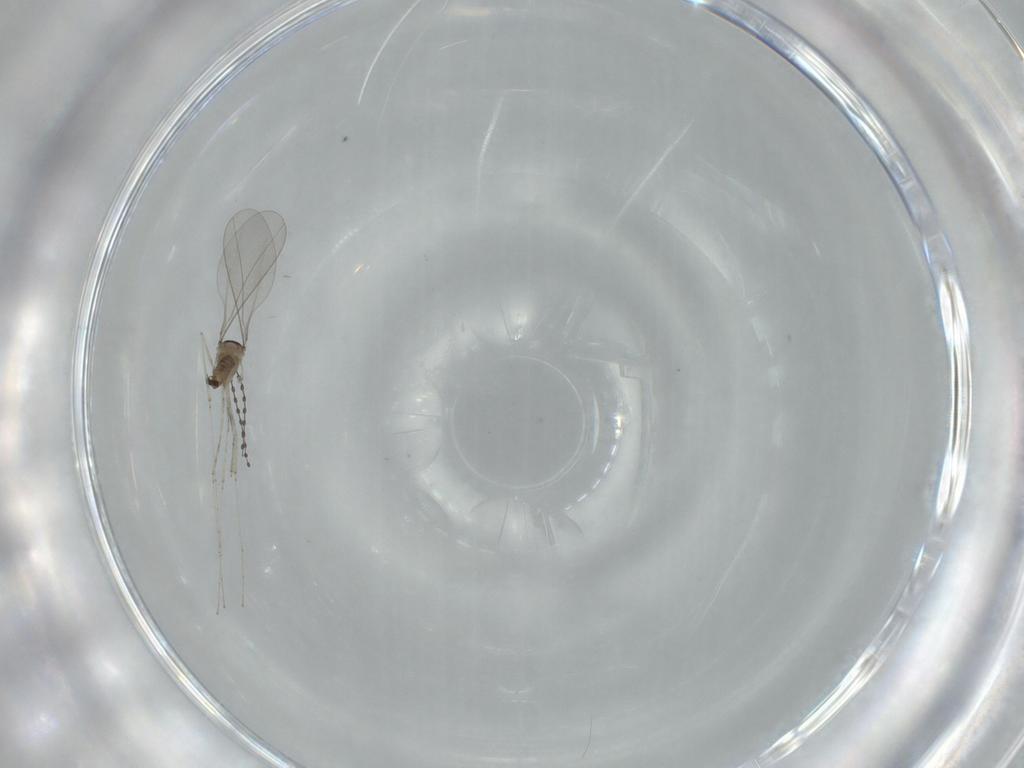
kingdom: Animalia
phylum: Arthropoda
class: Insecta
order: Diptera
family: Cecidomyiidae
